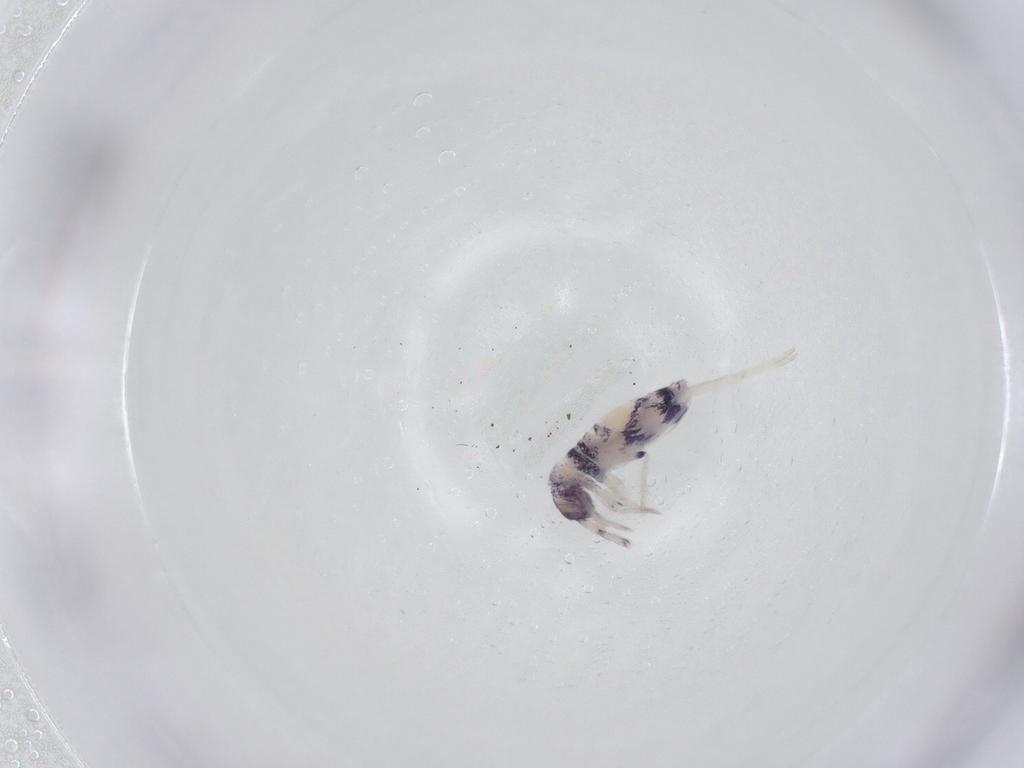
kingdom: Animalia
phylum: Arthropoda
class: Collembola
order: Entomobryomorpha
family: Entomobryidae
